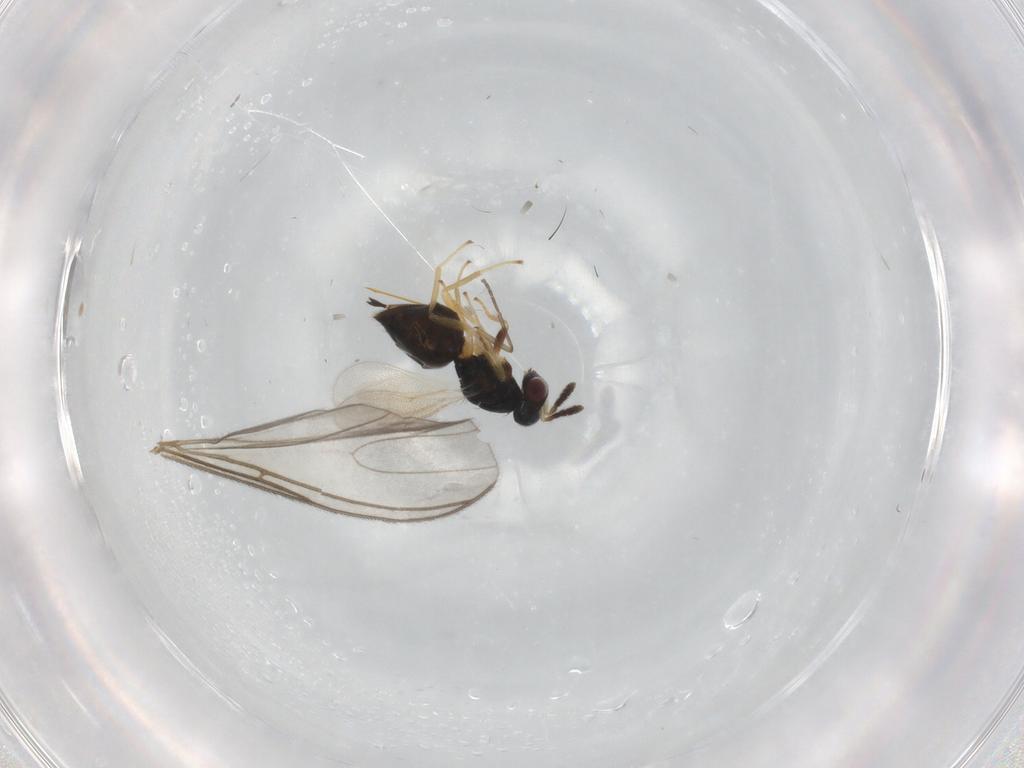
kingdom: Animalia
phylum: Arthropoda
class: Insecta
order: Hymenoptera
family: Eulophidae
